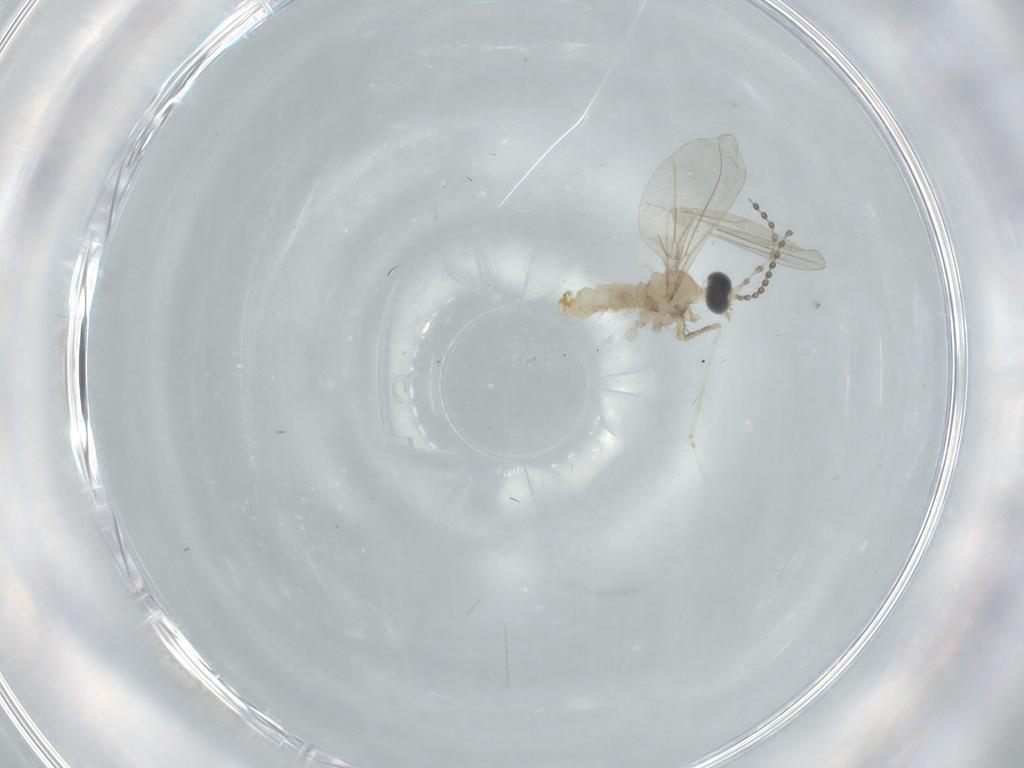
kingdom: Animalia
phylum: Arthropoda
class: Insecta
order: Diptera
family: Cecidomyiidae
